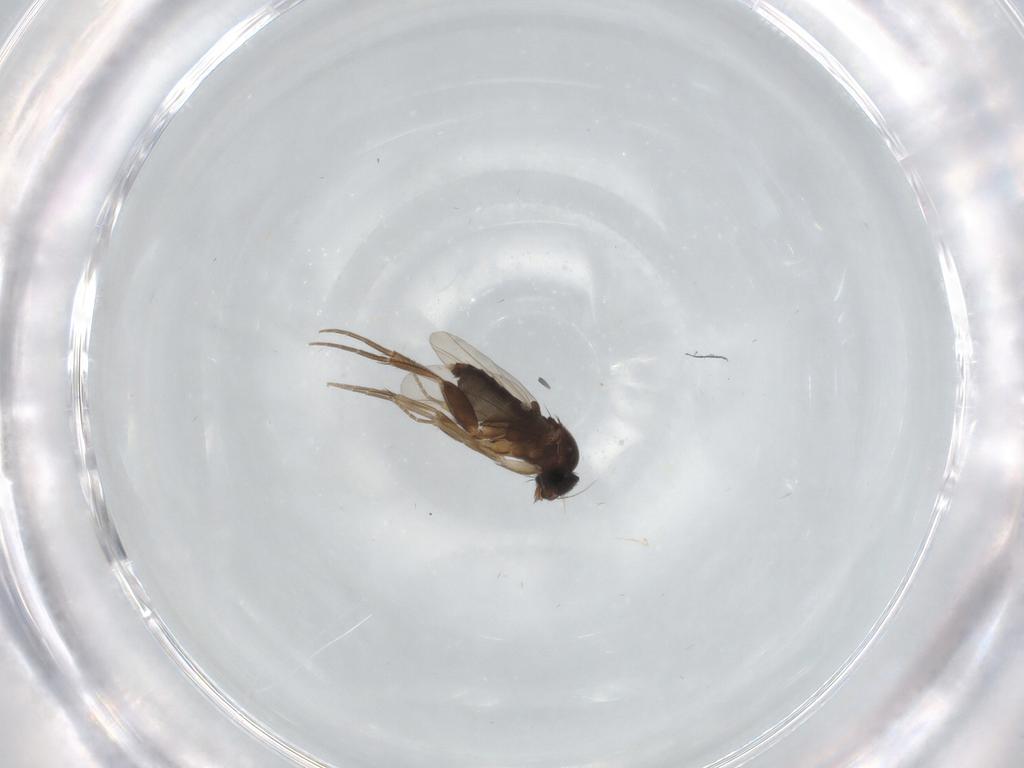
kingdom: Animalia
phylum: Arthropoda
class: Insecta
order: Diptera
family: Phoridae
